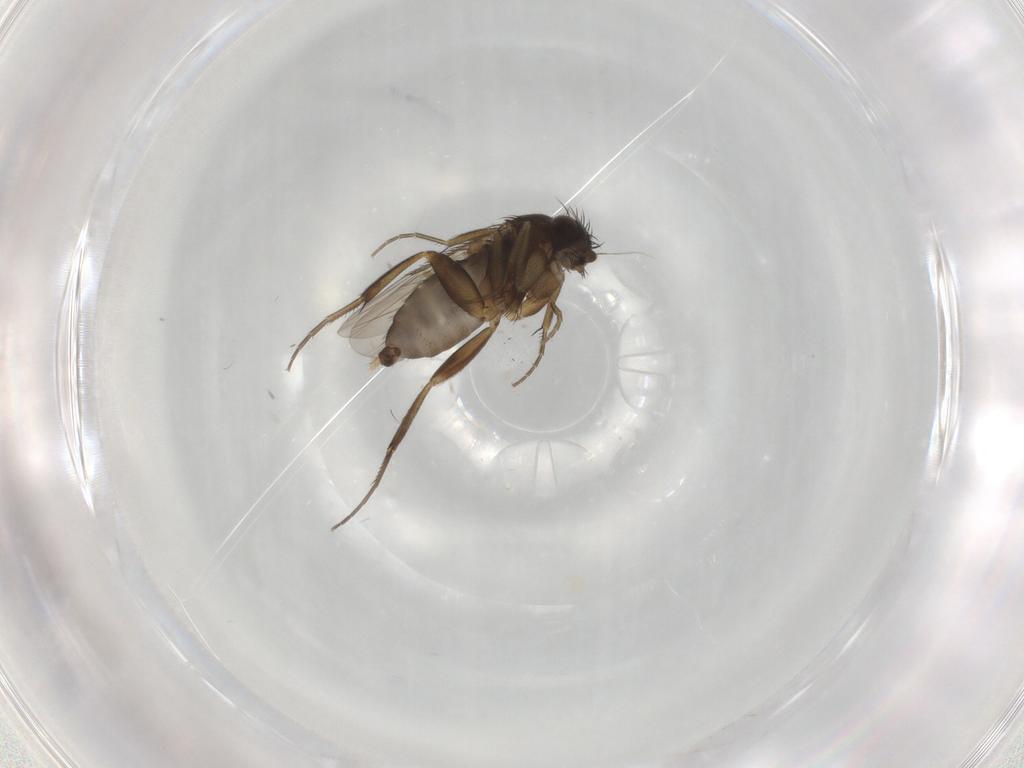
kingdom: Animalia
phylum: Arthropoda
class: Insecta
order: Diptera
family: Phoridae
